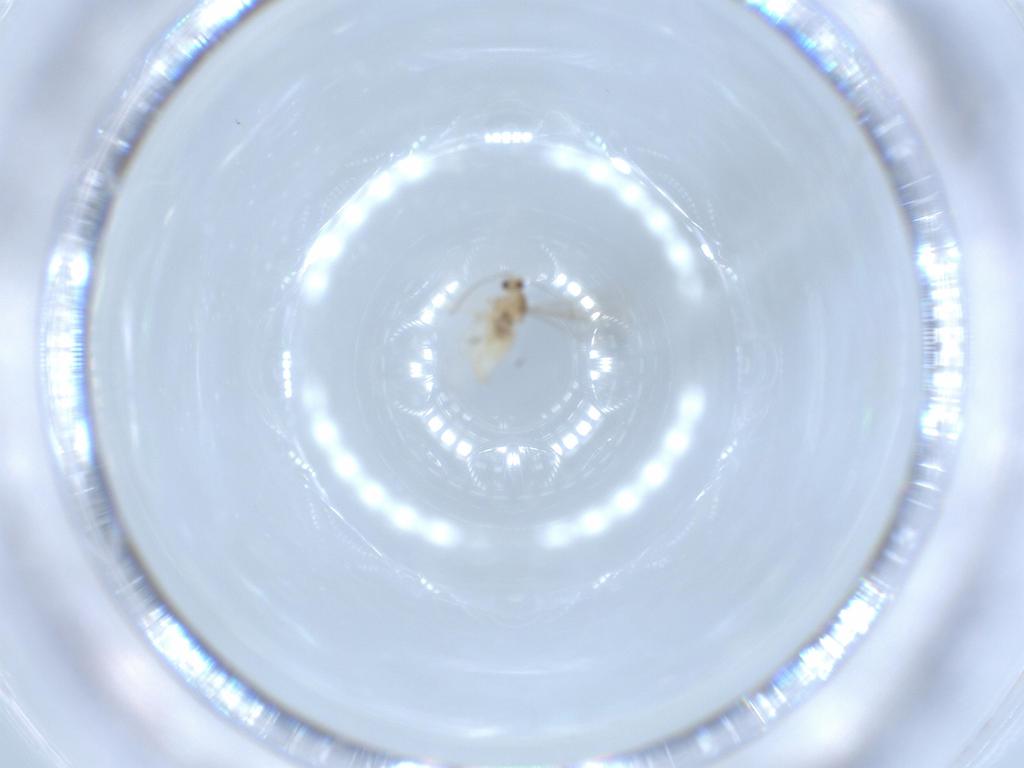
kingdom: Animalia
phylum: Arthropoda
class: Insecta
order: Diptera
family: Cecidomyiidae
